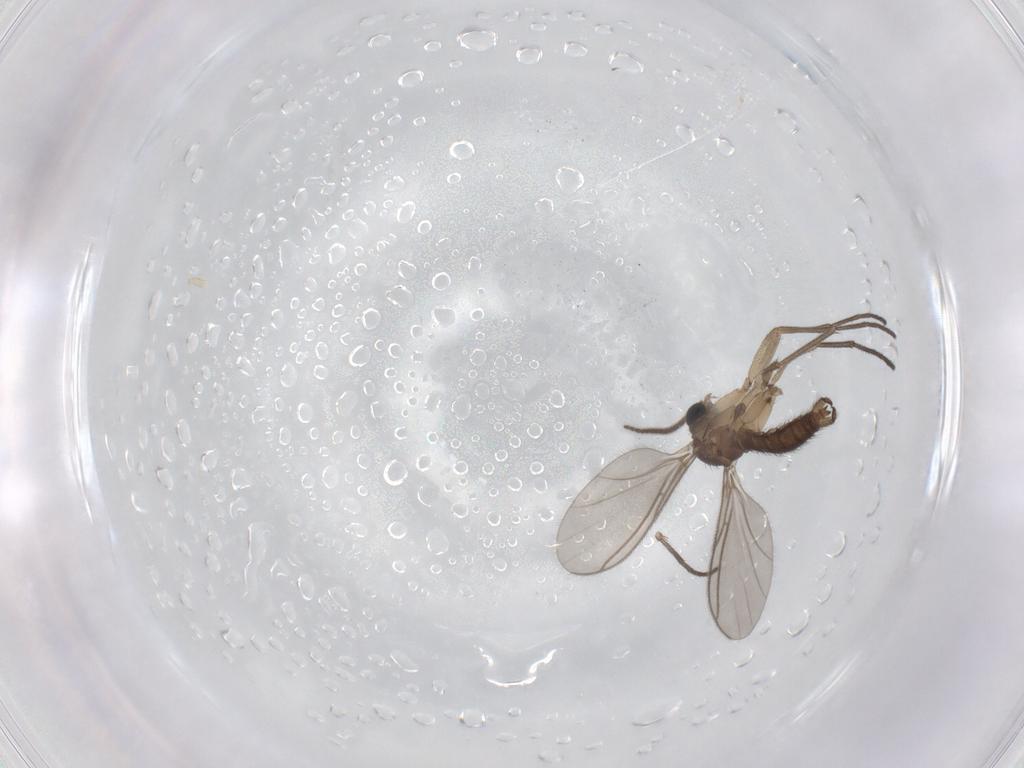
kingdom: Animalia
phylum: Arthropoda
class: Insecta
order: Diptera
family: Sciaridae
